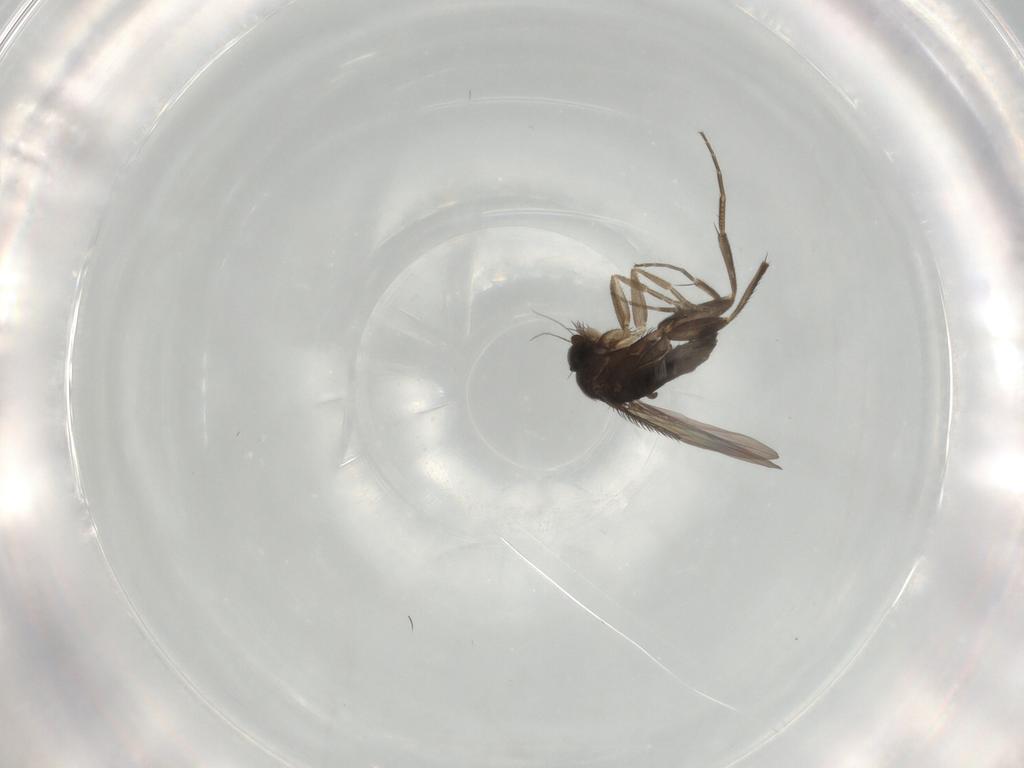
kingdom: Animalia
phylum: Arthropoda
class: Insecta
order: Diptera
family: Phoridae
